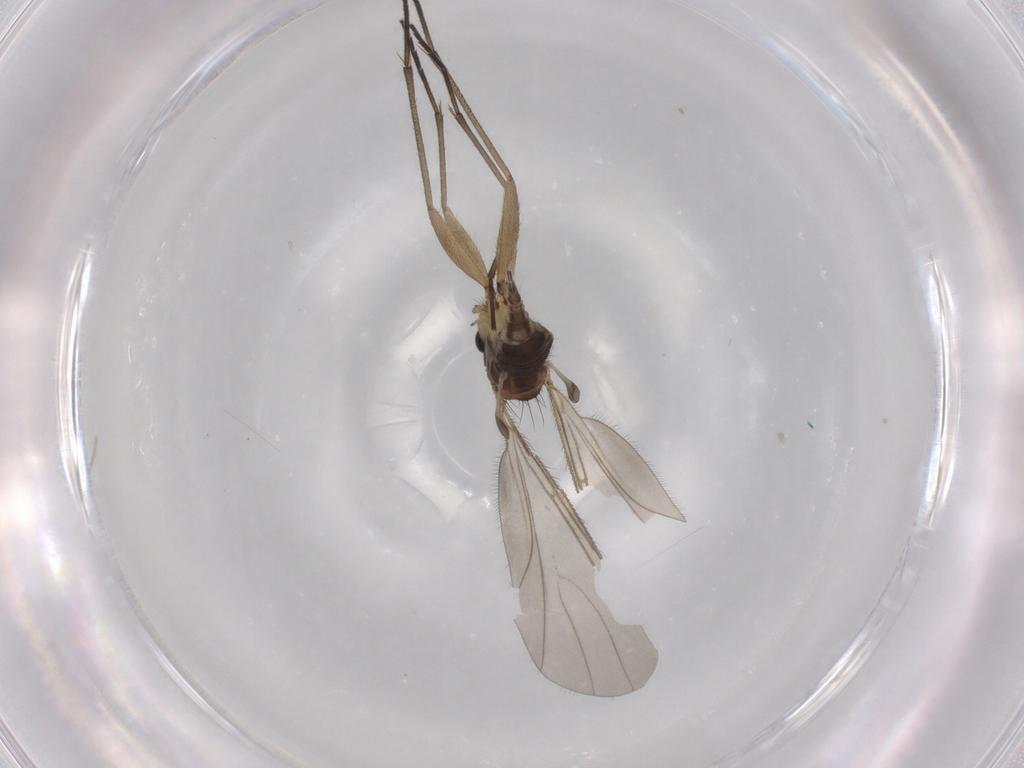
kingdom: Animalia
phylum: Arthropoda
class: Insecta
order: Diptera
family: Sciaridae
